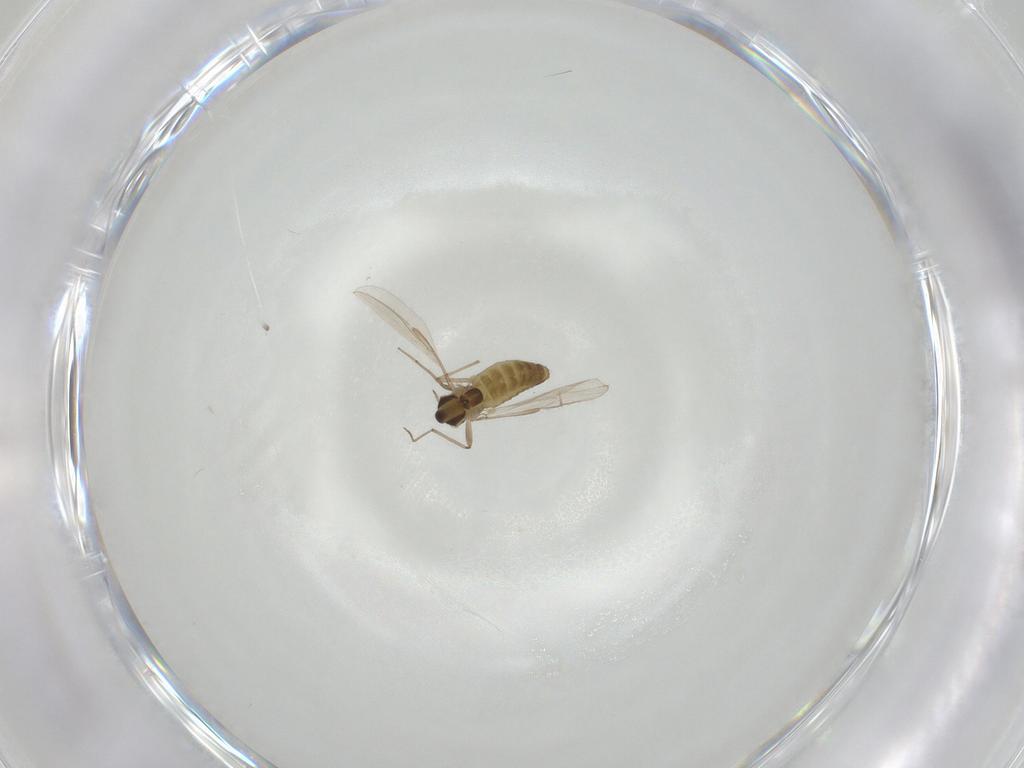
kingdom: Animalia
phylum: Arthropoda
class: Insecta
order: Diptera
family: Chironomidae
